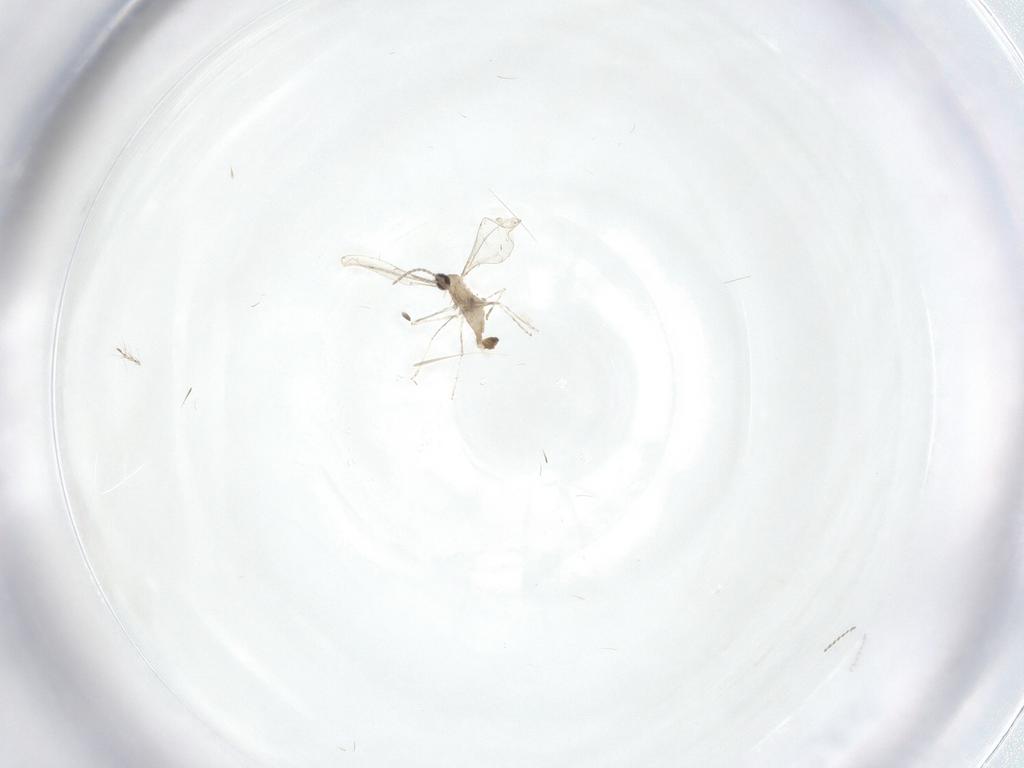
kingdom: Animalia
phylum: Arthropoda
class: Insecta
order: Diptera
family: Cecidomyiidae
